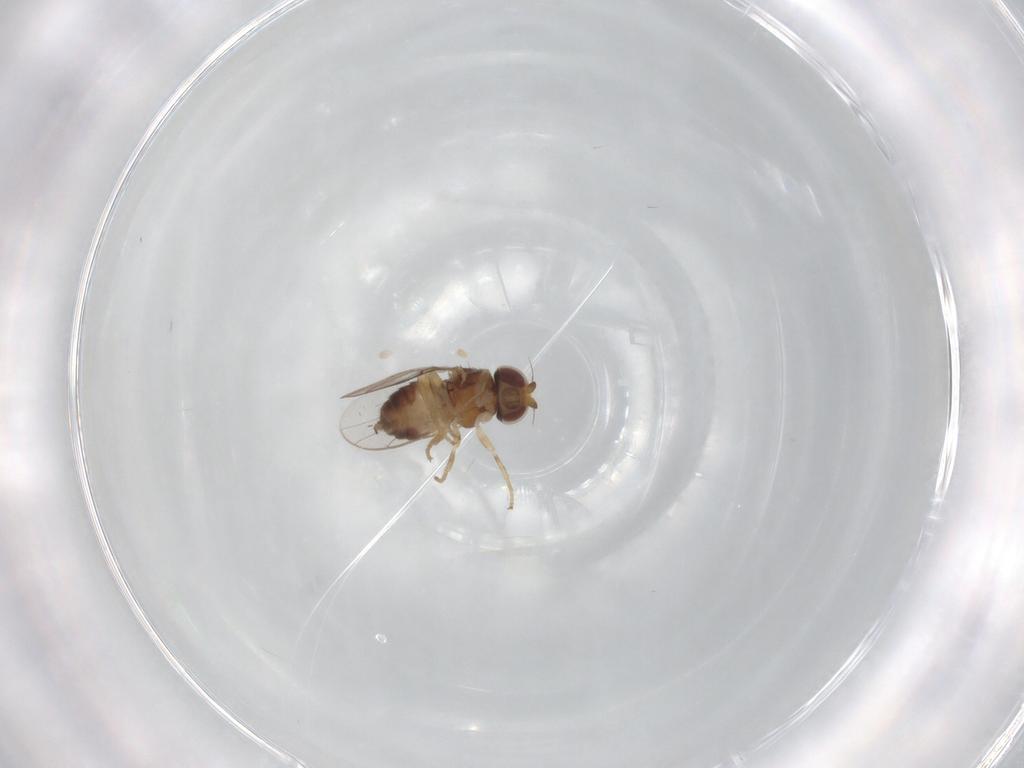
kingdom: Animalia
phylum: Arthropoda
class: Insecta
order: Diptera
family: Chloropidae
